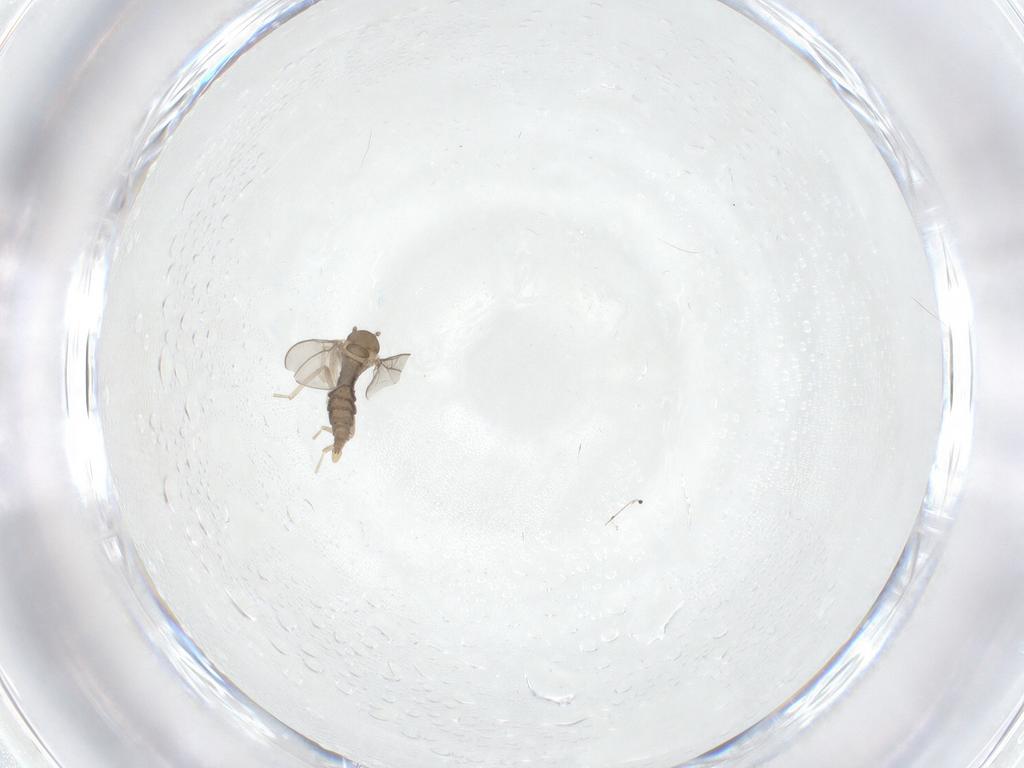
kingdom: Animalia
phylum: Arthropoda
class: Insecta
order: Diptera
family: Cecidomyiidae
